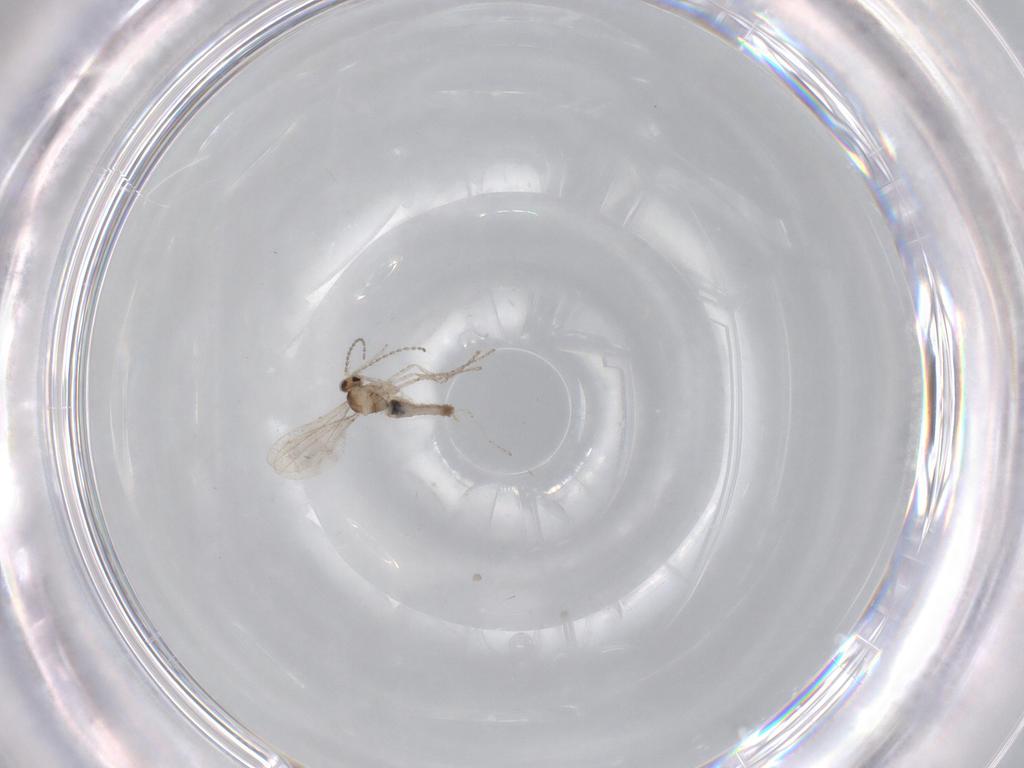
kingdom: Animalia
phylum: Arthropoda
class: Insecta
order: Diptera
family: Cecidomyiidae
